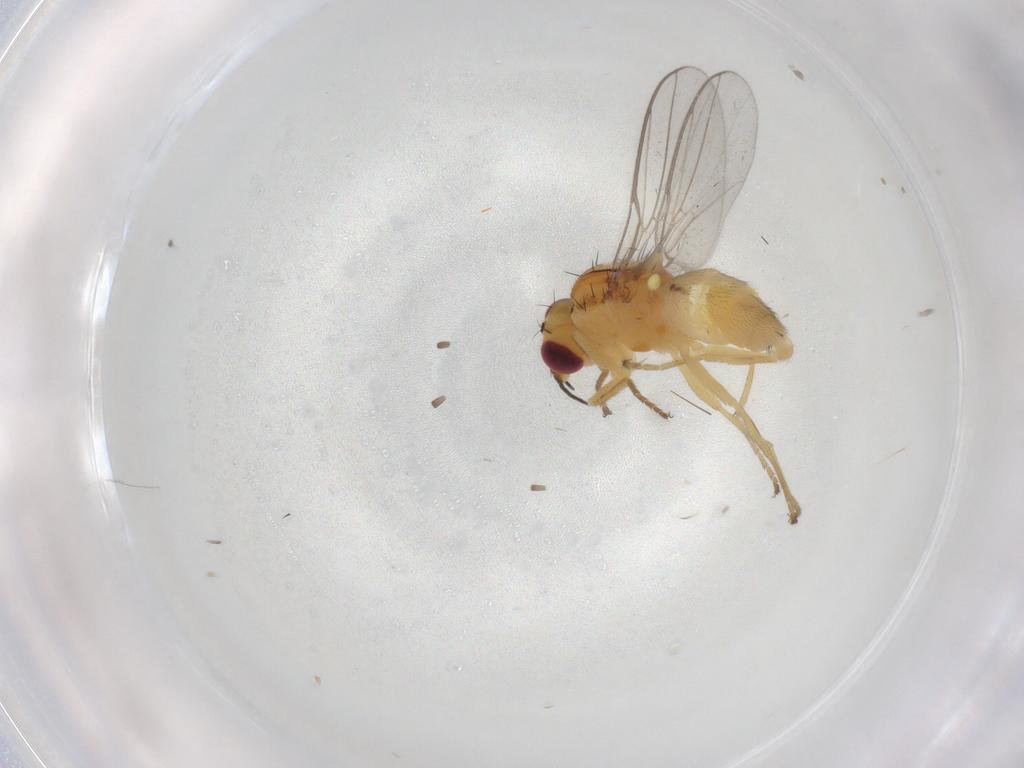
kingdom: Animalia
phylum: Arthropoda
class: Insecta
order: Diptera
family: Chloropidae
